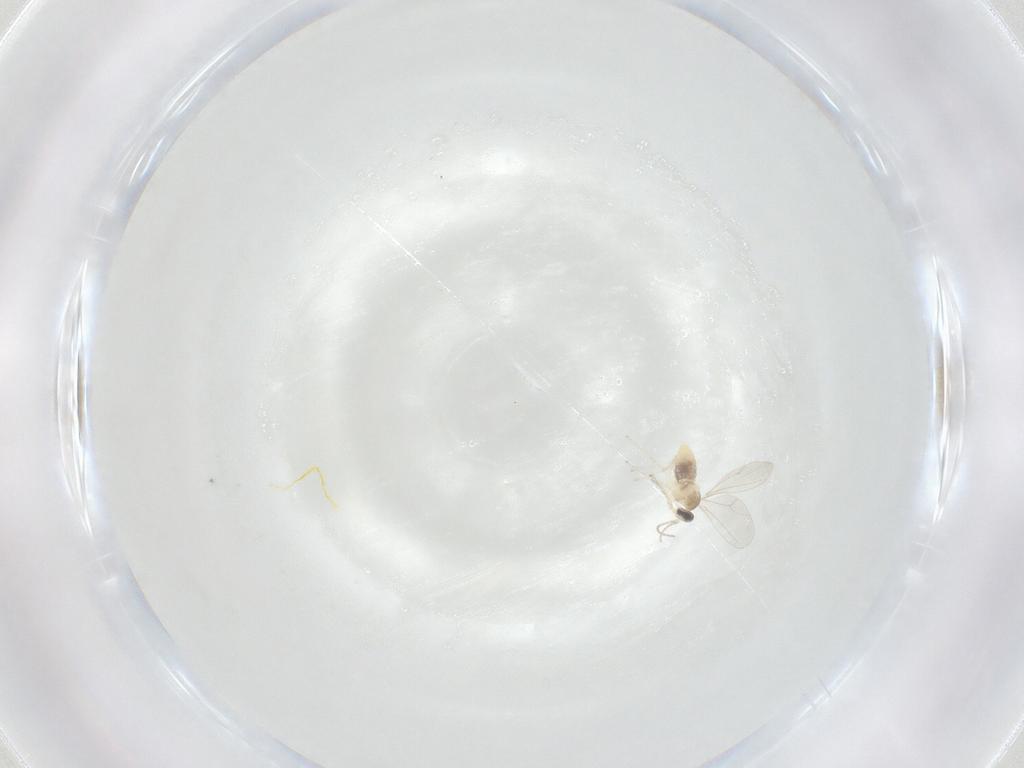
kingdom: Animalia
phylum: Arthropoda
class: Insecta
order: Diptera
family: Cecidomyiidae
